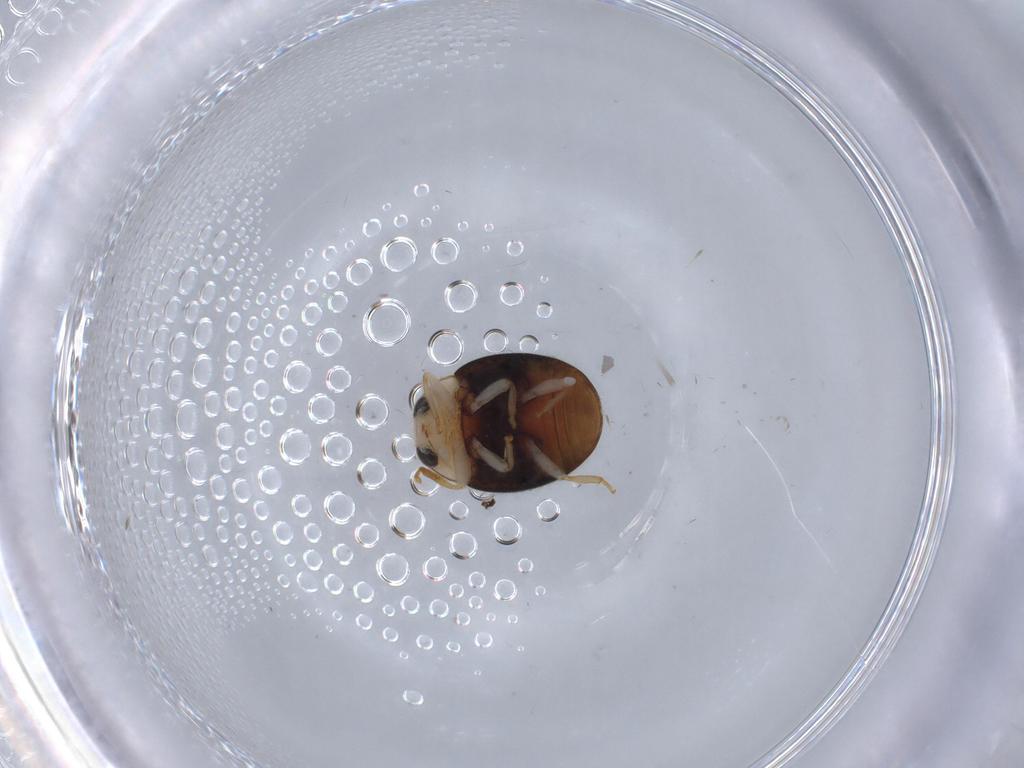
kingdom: Animalia
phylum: Arthropoda
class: Insecta
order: Coleoptera
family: Chrysomelidae
